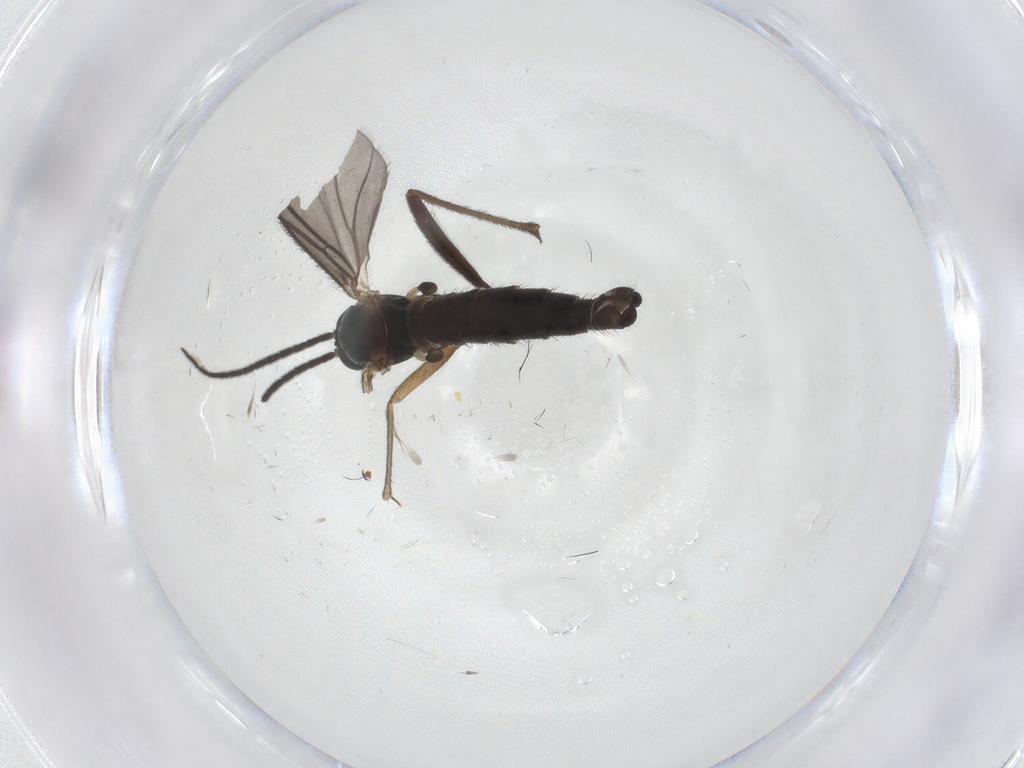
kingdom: Animalia
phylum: Arthropoda
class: Insecta
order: Diptera
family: Sciaridae
